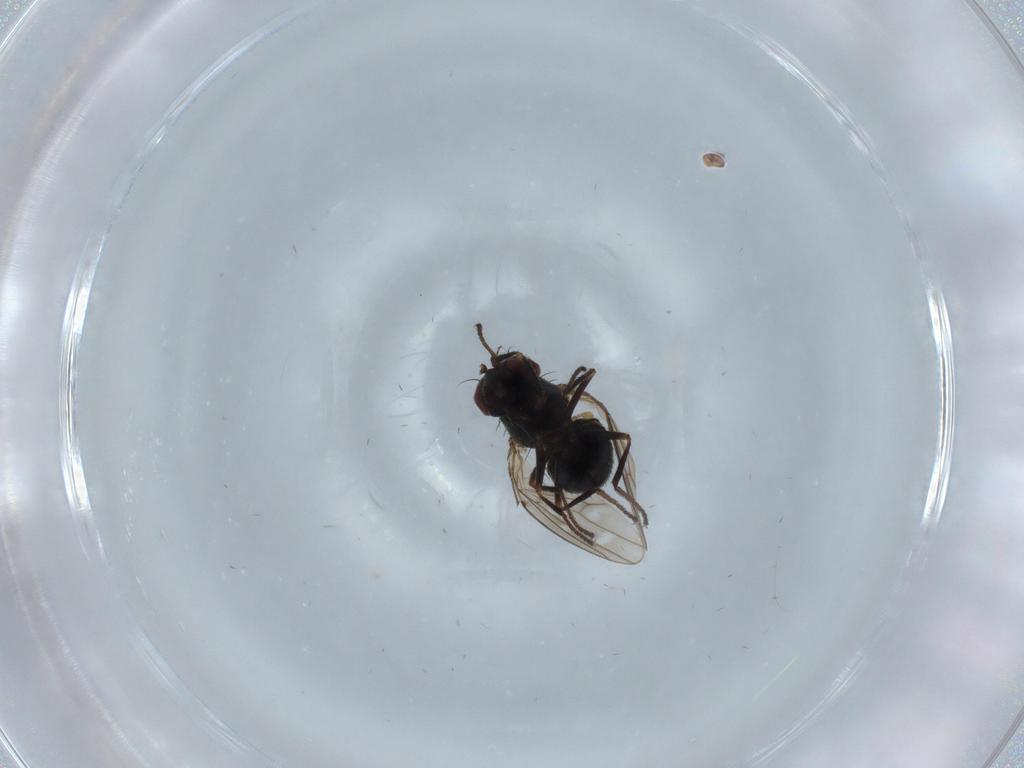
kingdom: Animalia
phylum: Arthropoda
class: Insecta
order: Diptera
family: Ephydridae
